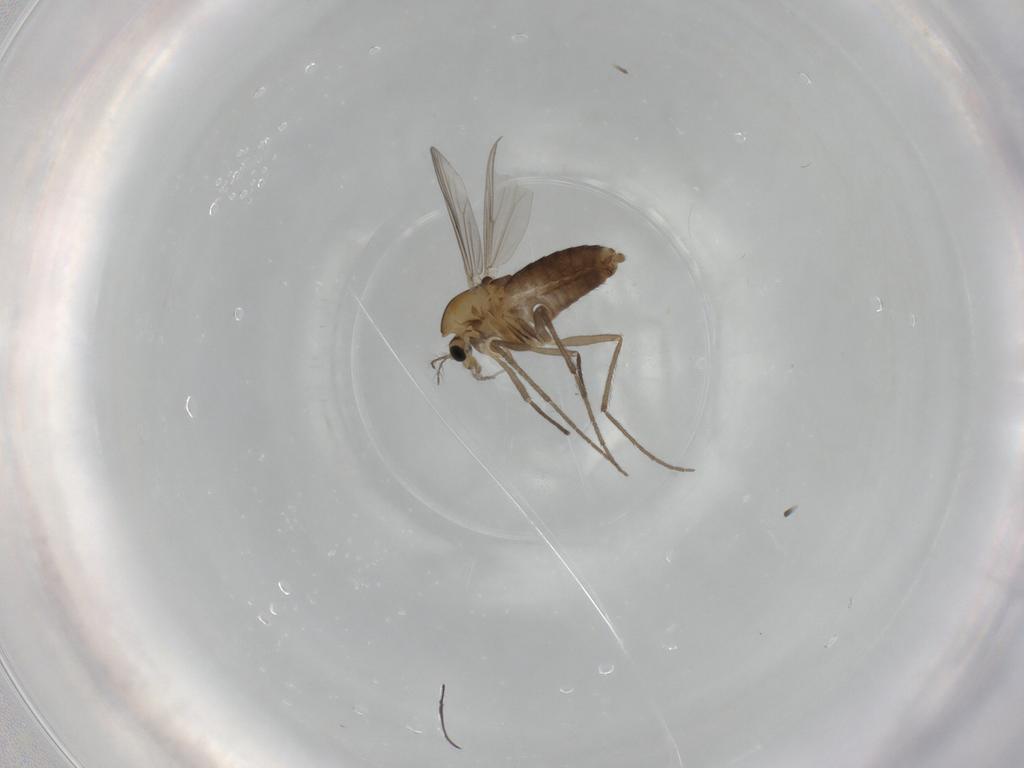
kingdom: Animalia
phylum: Arthropoda
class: Insecta
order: Diptera
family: Chironomidae
